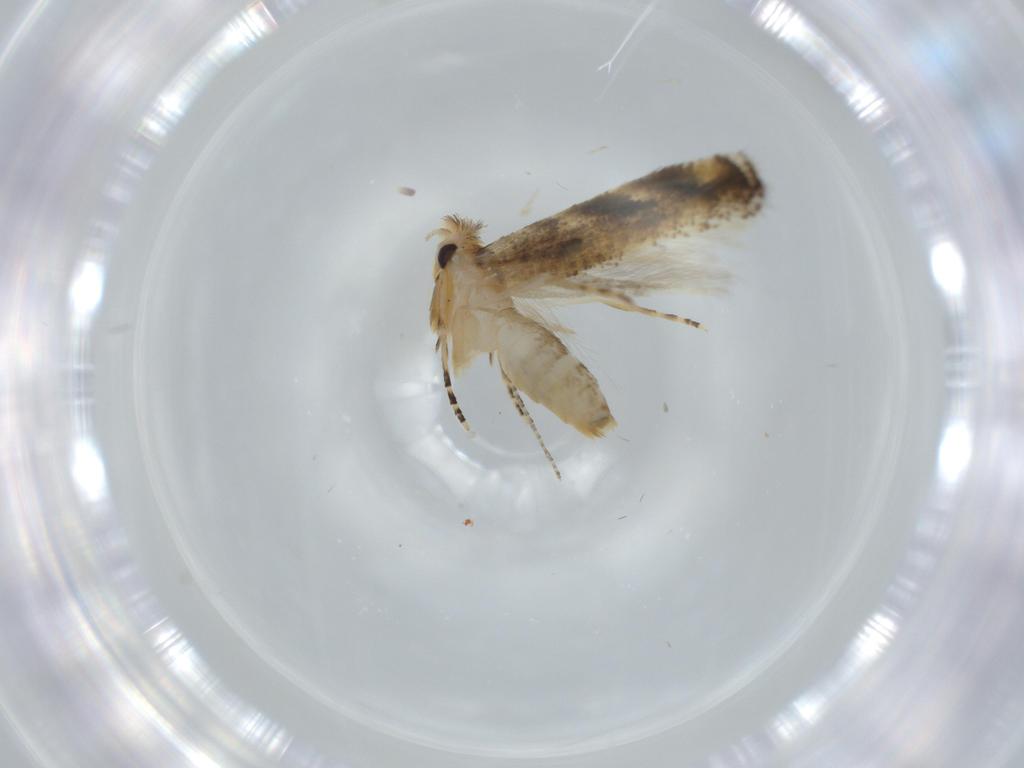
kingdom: Animalia
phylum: Arthropoda
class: Insecta
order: Lepidoptera
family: Bucculatricidae
